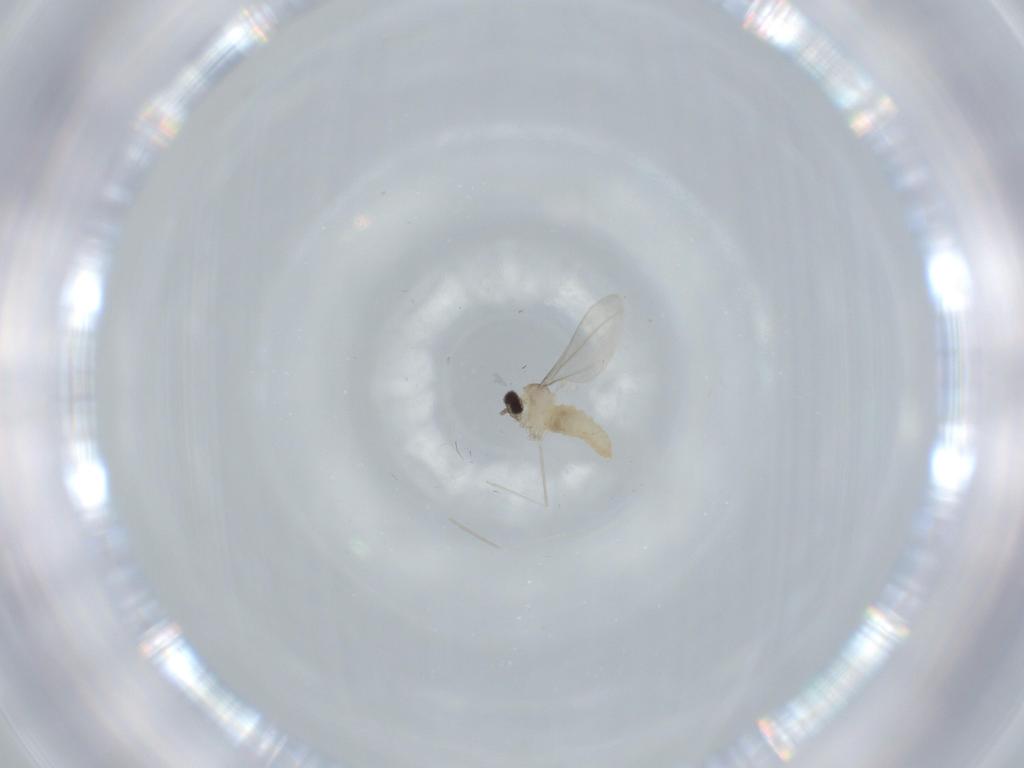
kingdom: Animalia
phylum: Arthropoda
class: Insecta
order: Diptera
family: Cecidomyiidae
